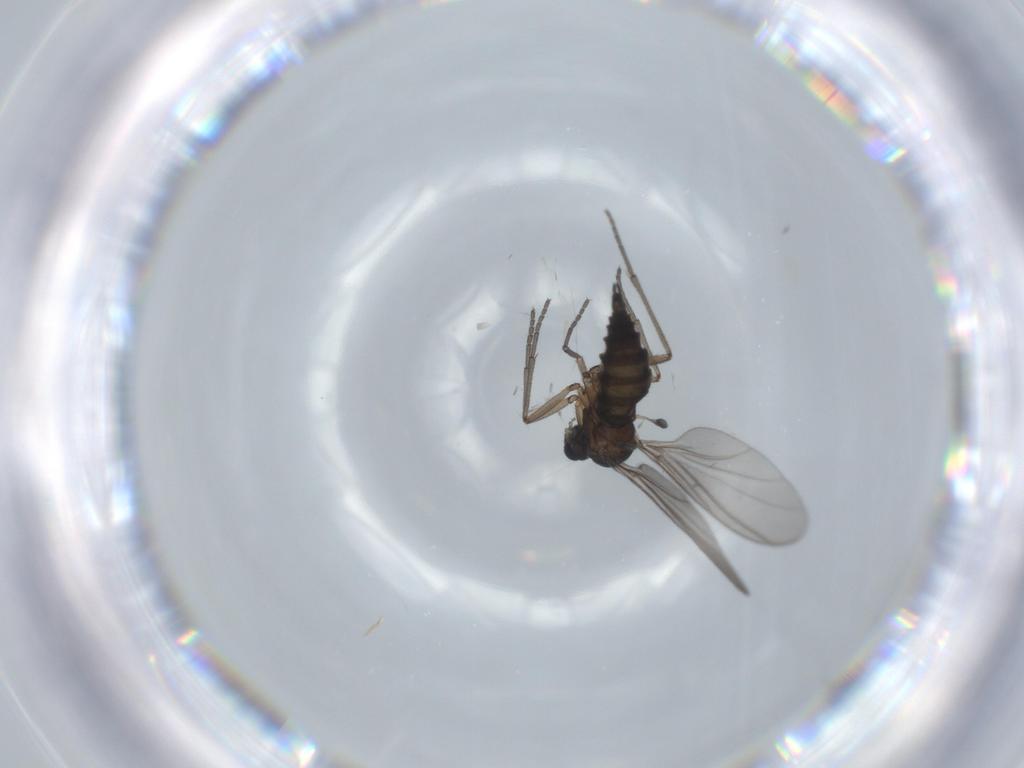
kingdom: Animalia
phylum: Arthropoda
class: Insecta
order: Diptera
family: Sciaridae
